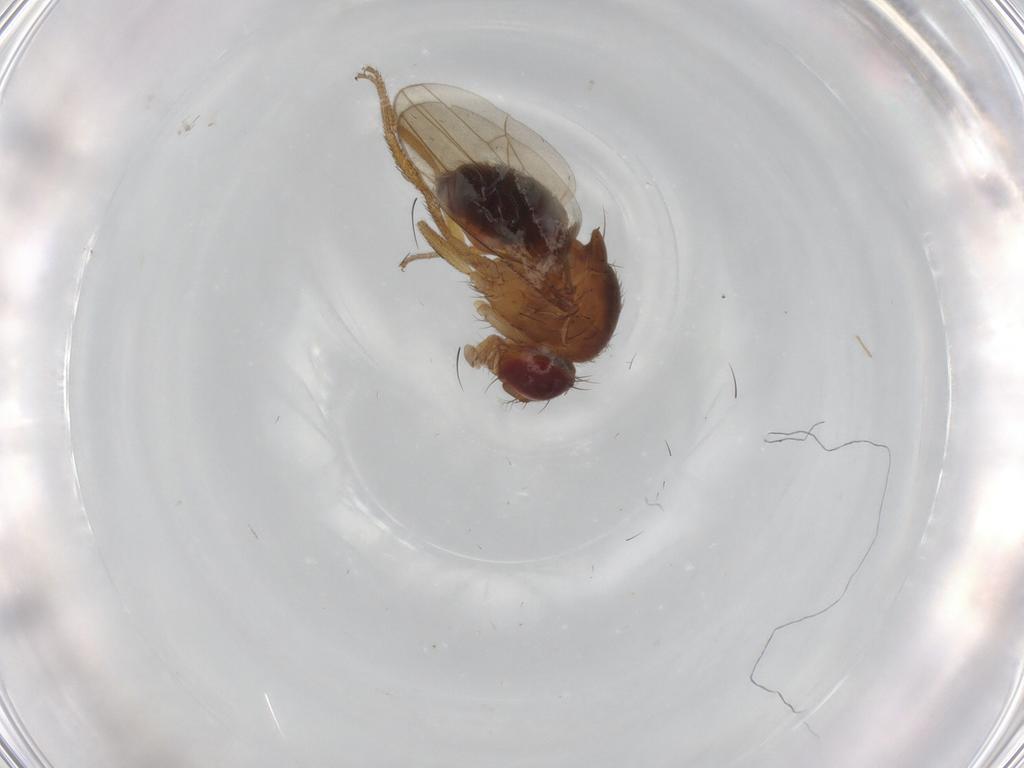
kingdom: Animalia
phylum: Arthropoda
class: Insecta
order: Diptera
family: Drosophilidae
